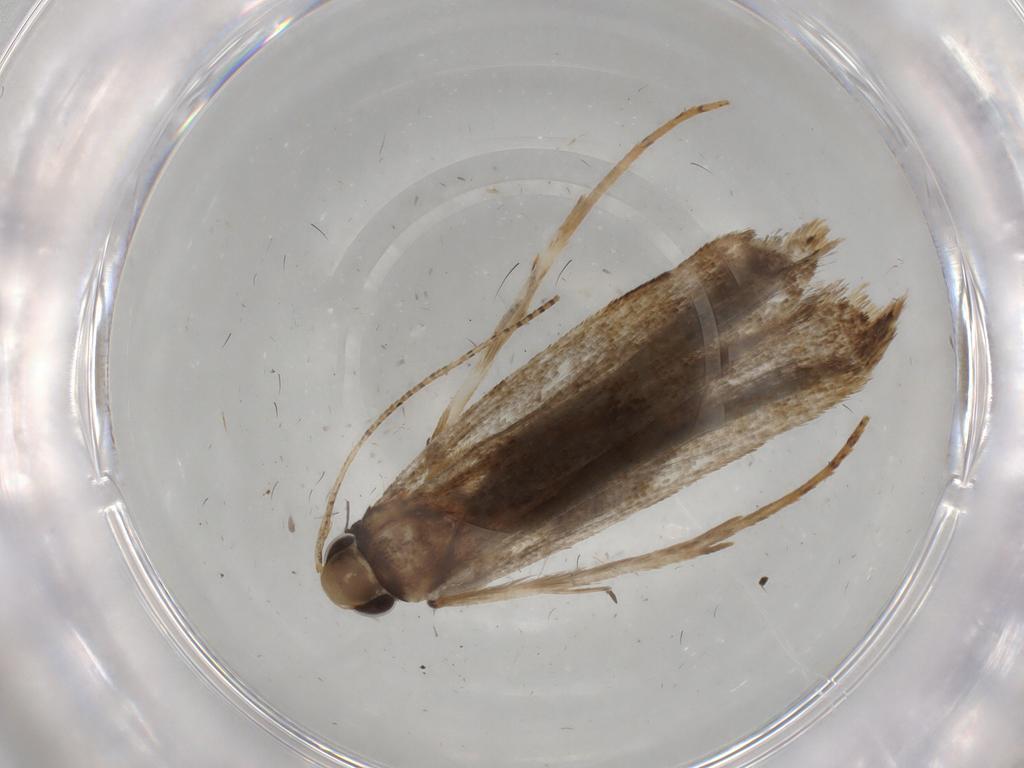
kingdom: Animalia
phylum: Arthropoda
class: Insecta
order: Lepidoptera
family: Gelechiidae
